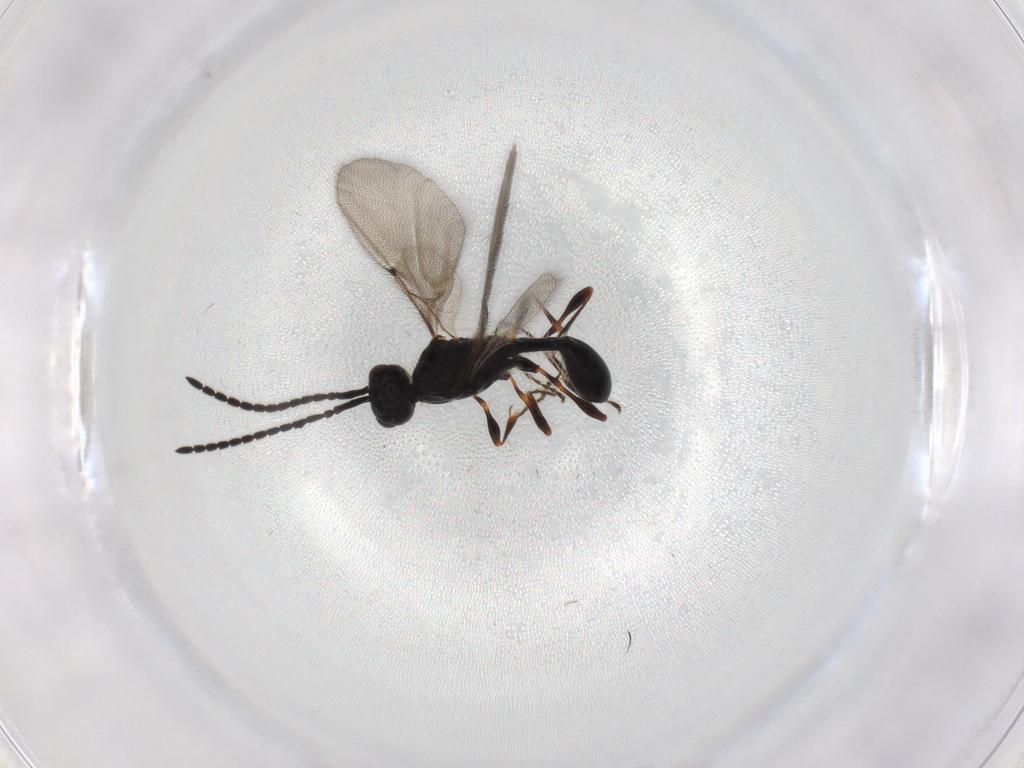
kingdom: Animalia
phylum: Arthropoda
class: Insecta
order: Hymenoptera
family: Diapriidae
